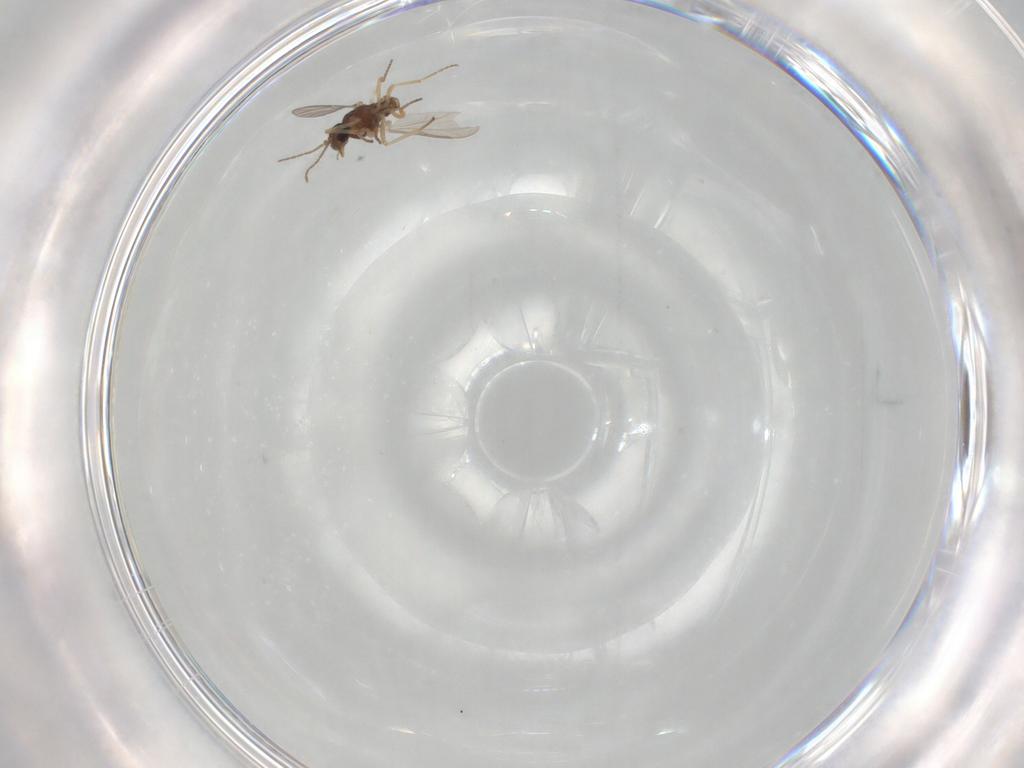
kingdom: Animalia
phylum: Arthropoda
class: Insecta
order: Diptera
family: Ceratopogonidae
